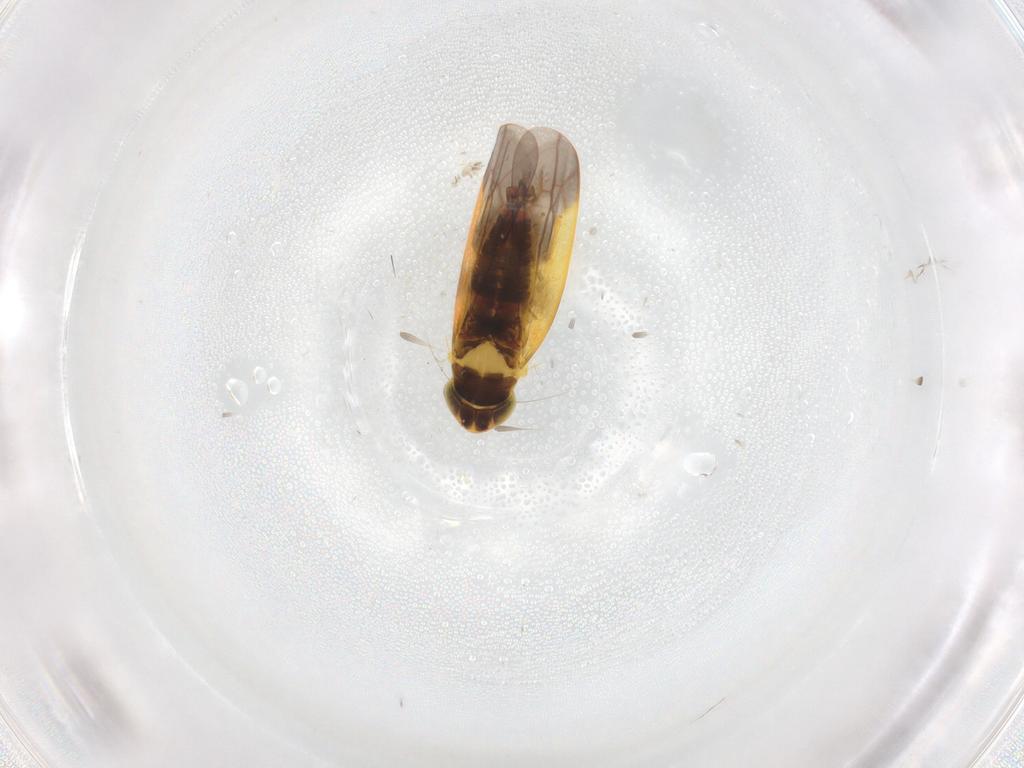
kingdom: Animalia
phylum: Arthropoda
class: Insecta
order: Hemiptera
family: Cicadellidae
